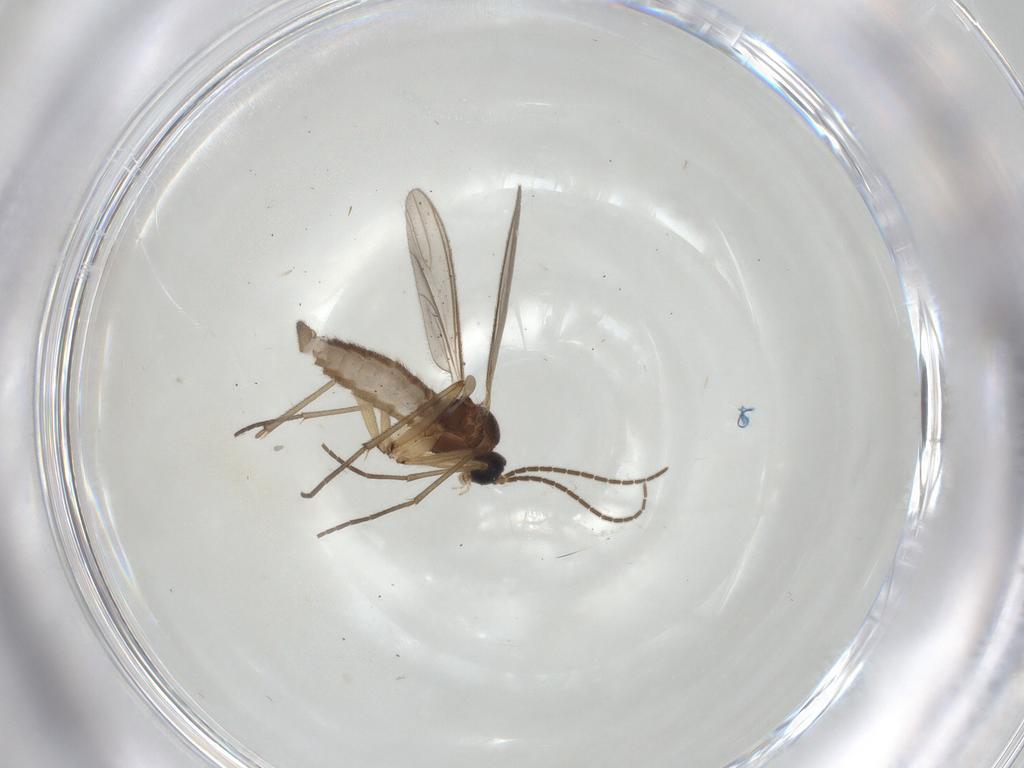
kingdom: Animalia
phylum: Arthropoda
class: Insecta
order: Diptera
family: Sciaridae
